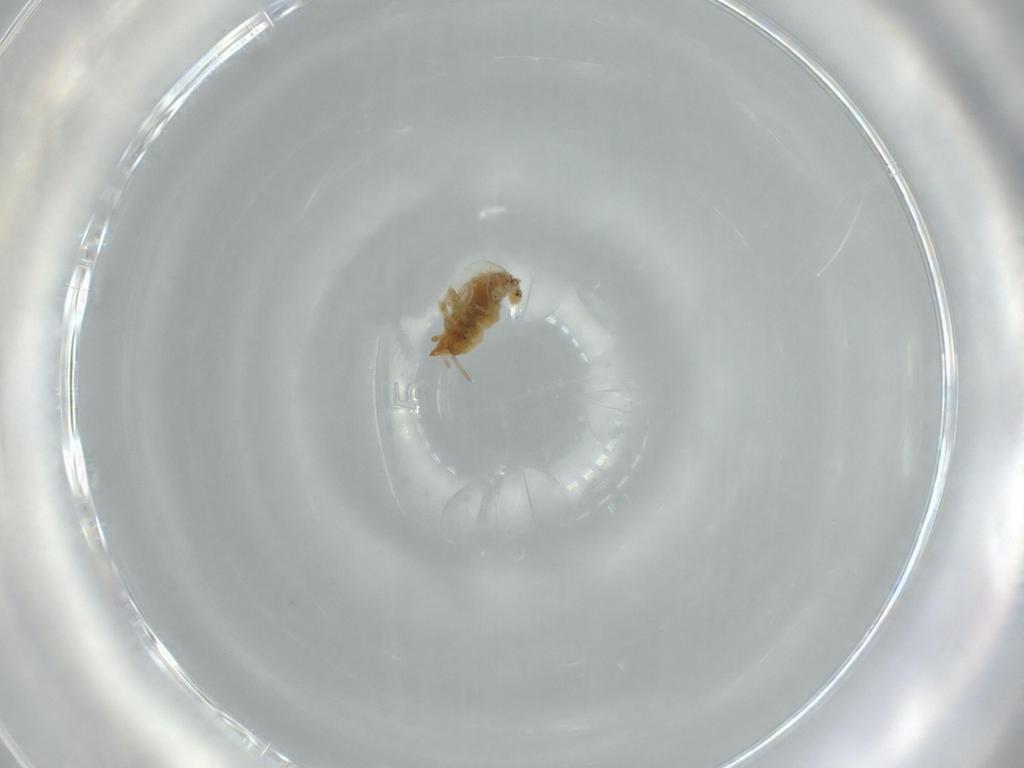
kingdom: Animalia
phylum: Arthropoda
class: Insecta
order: Neuroptera
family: Coniopterygidae
